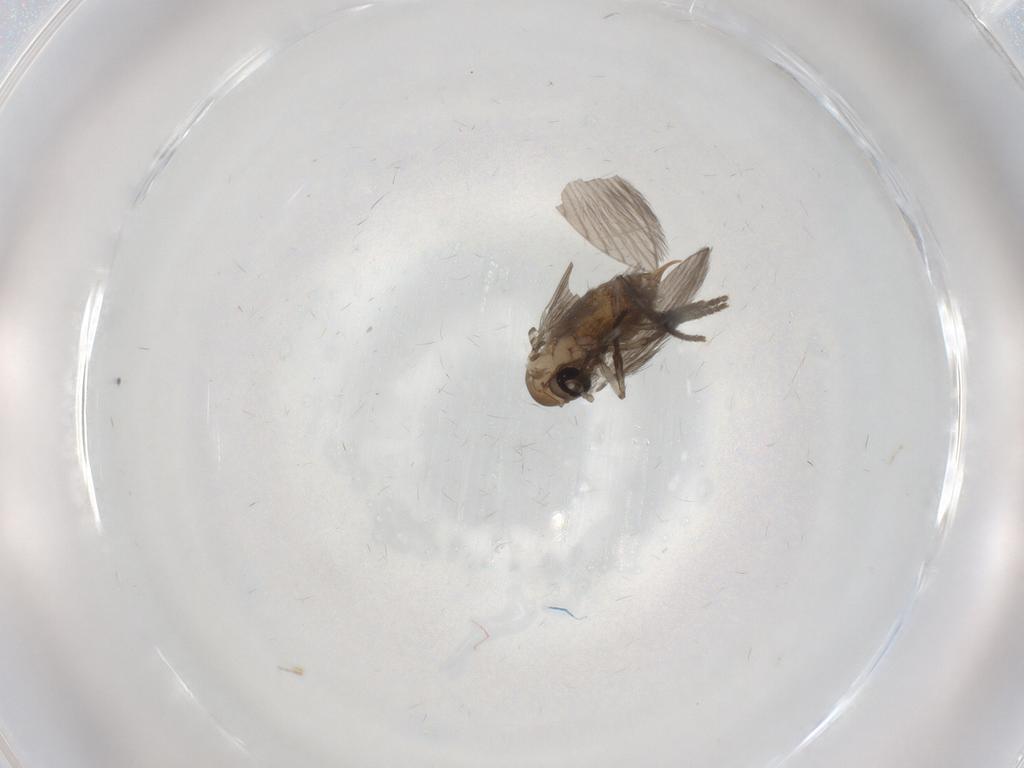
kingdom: Animalia
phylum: Arthropoda
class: Insecta
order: Diptera
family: Psychodidae
